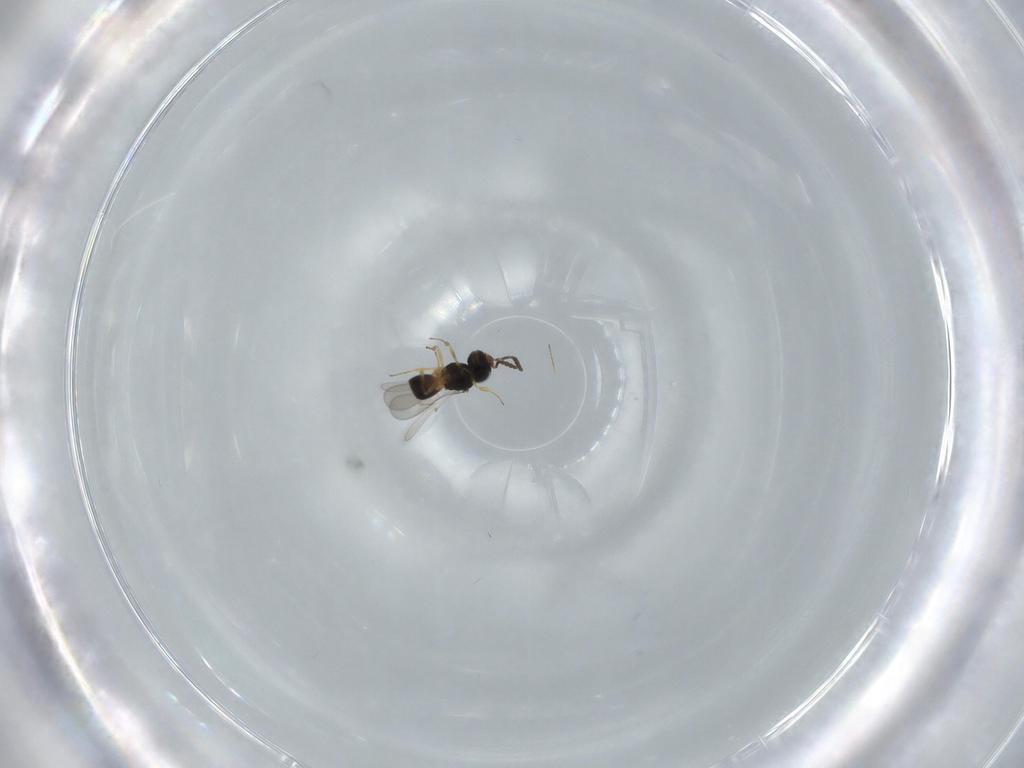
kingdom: Animalia
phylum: Arthropoda
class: Insecta
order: Hymenoptera
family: Scelionidae
